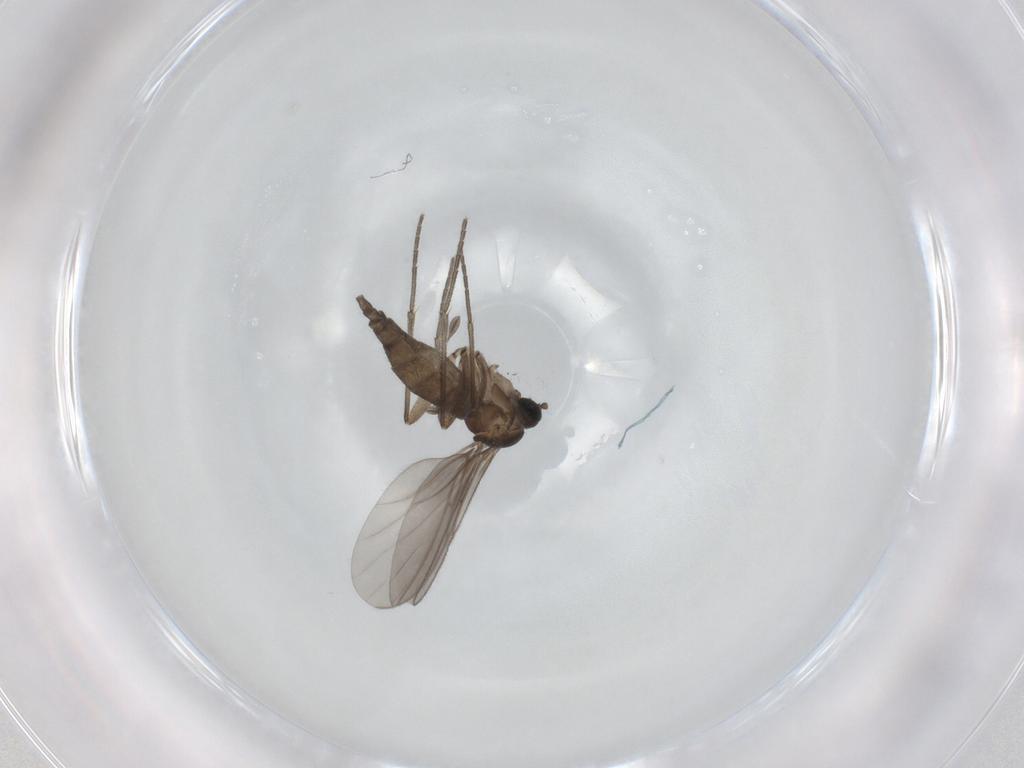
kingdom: Animalia
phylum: Arthropoda
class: Insecta
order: Diptera
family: Sciaridae
